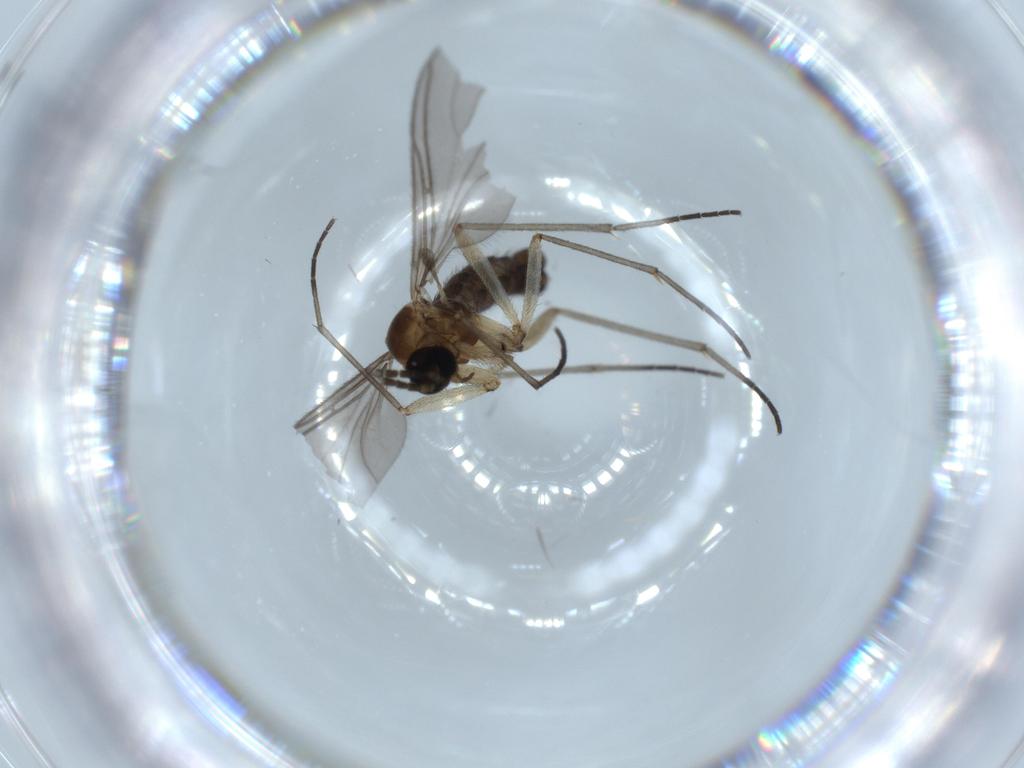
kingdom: Animalia
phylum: Arthropoda
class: Insecta
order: Diptera
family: Sciaridae
